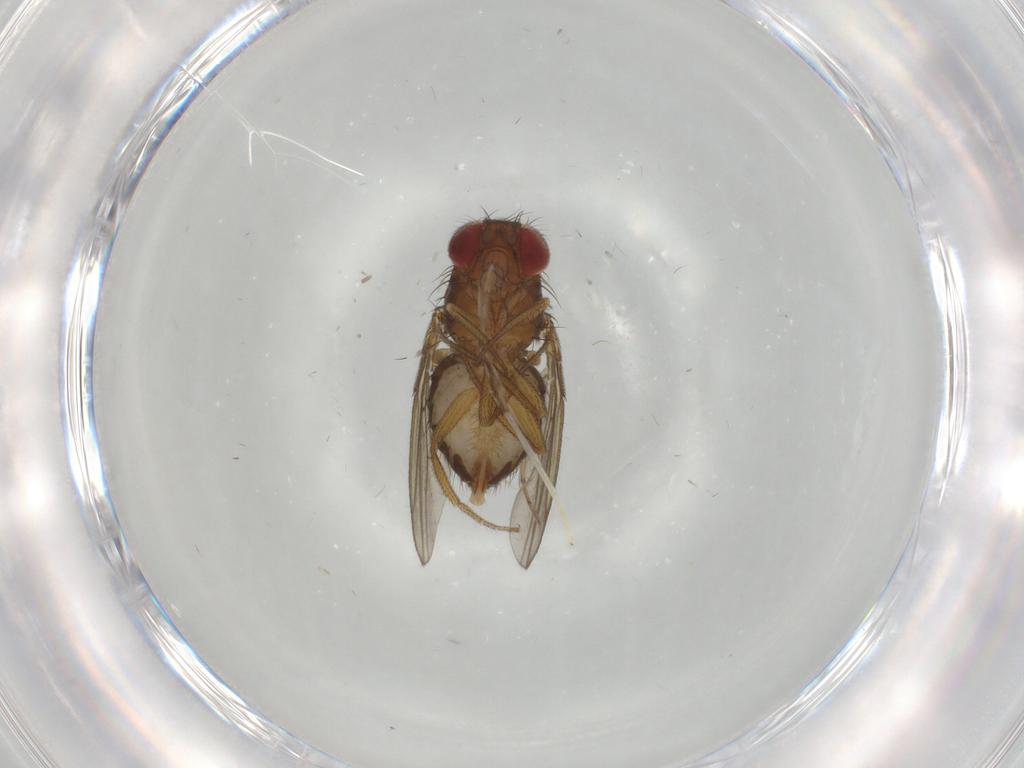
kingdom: Animalia
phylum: Arthropoda
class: Insecta
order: Diptera
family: Drosophilidae
